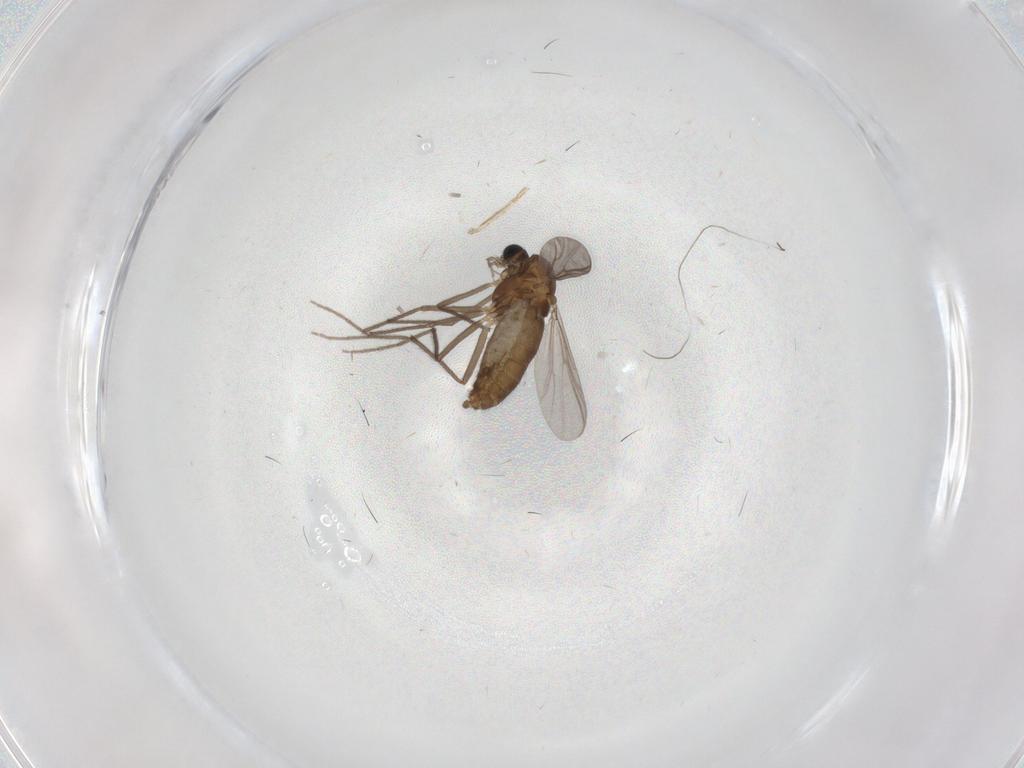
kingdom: Animalia
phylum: Arthropoda
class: Insecta
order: Diptera
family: Chironomidae
